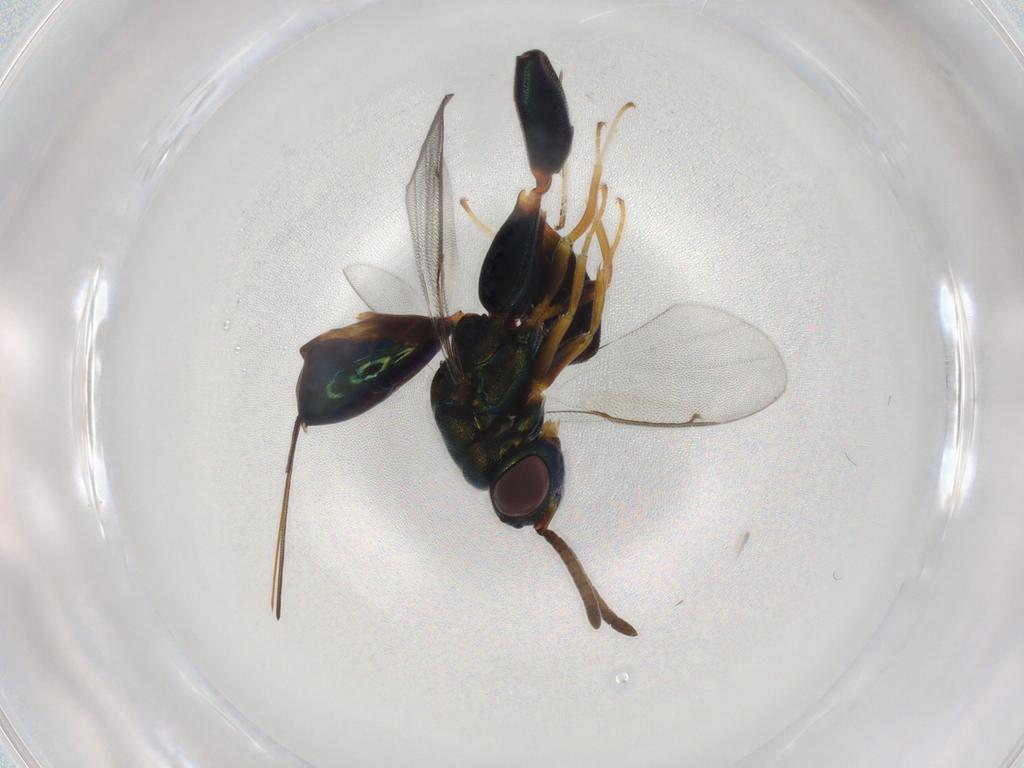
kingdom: Animalia
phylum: Arthropoda
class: Insecta
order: Hymenoptera
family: Torymidae
